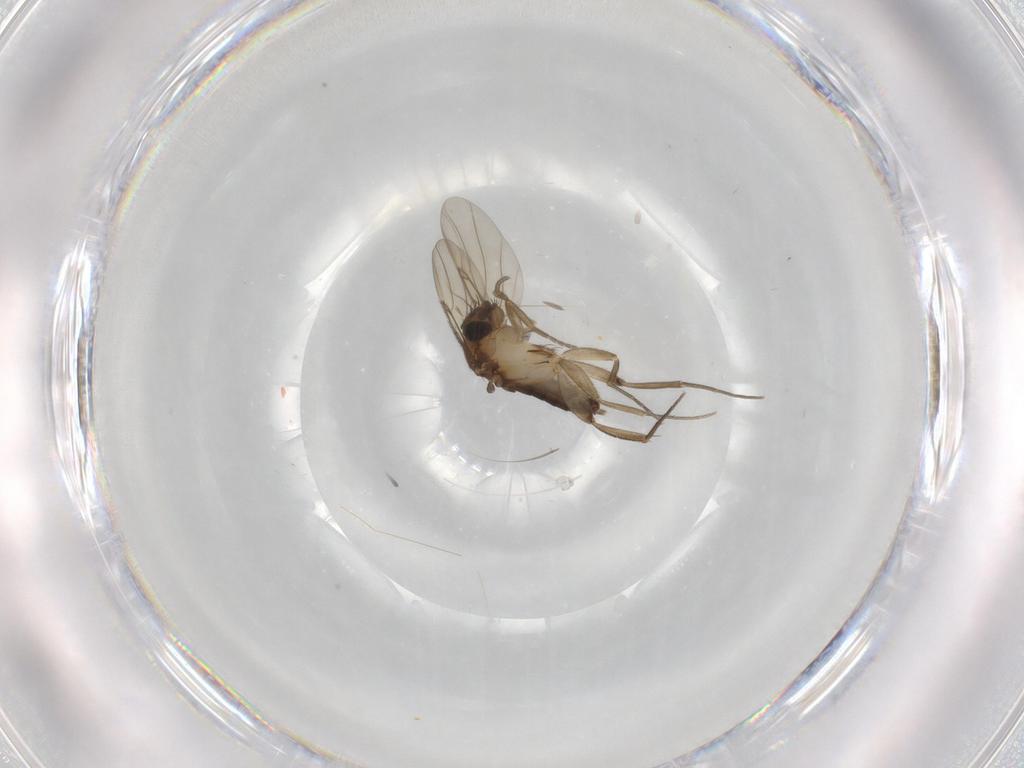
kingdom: Animalia
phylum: Arthropoda
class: Insecta
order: Diptera
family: Phoridae
